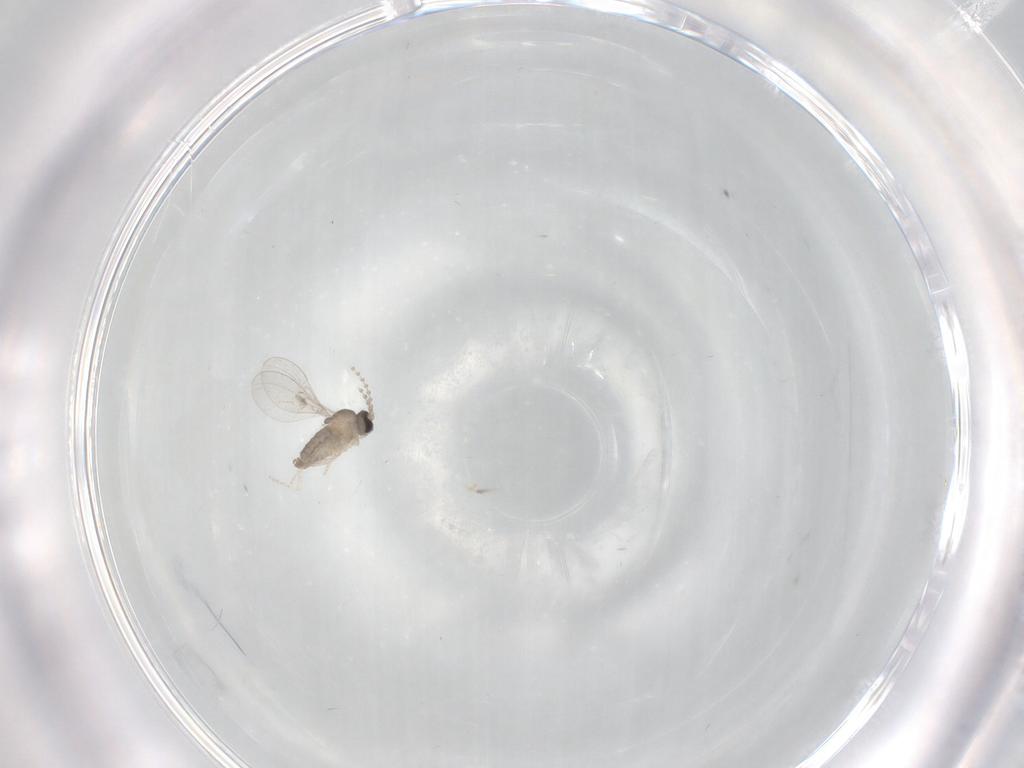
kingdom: Animalia
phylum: Arthropoda
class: Insecta
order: Diptera
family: Cecidomyiidae
